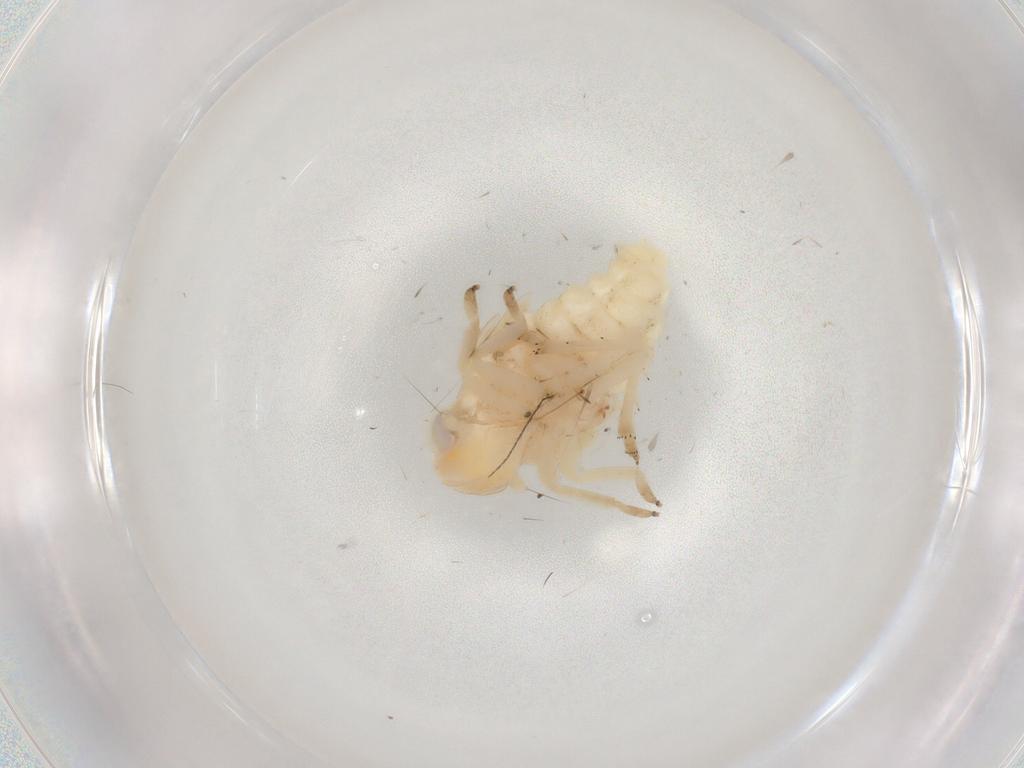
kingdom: Animalia
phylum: Arthropoda
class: Insecta
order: Hemiptera
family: Nogodinidae
